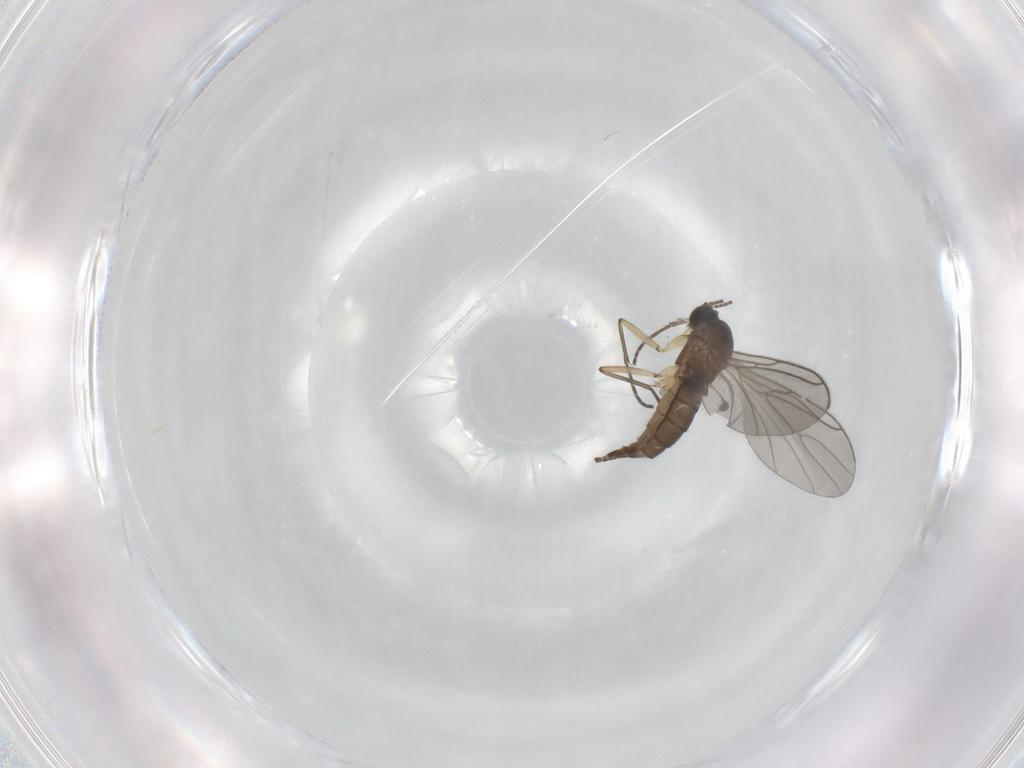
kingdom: Animalia
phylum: Arthropoda
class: Insecta
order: Diptera
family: Sciaridae
